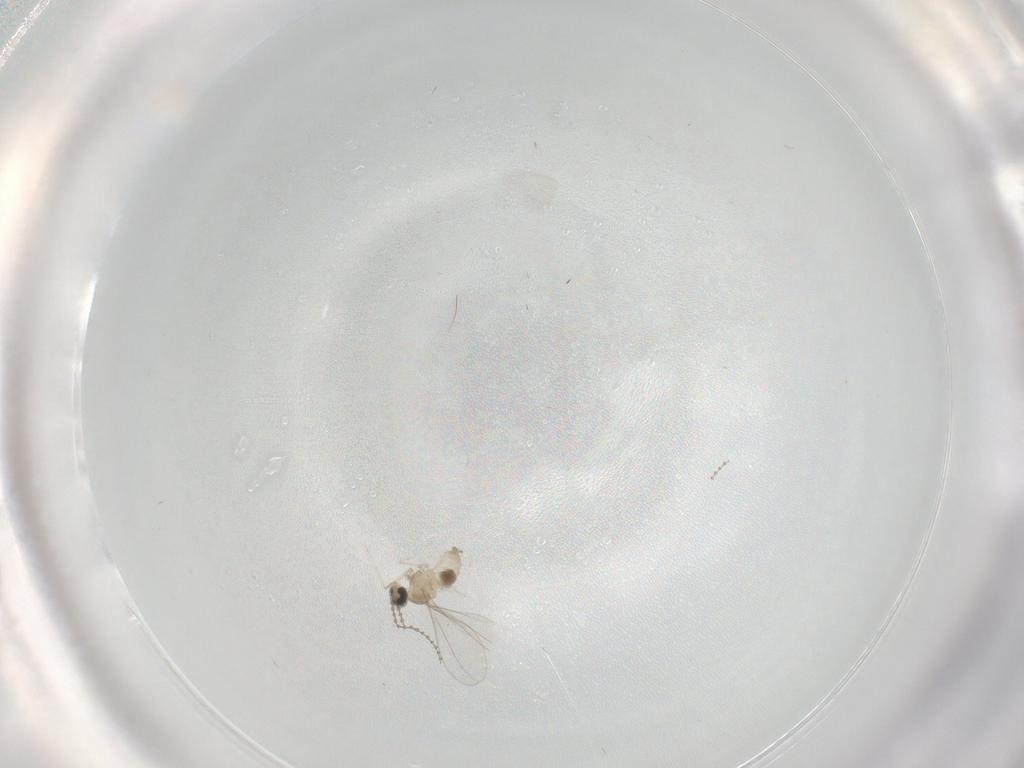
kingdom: Animalia
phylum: Arthropoda
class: Insecta
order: Diptera
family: Cecidomyiidae
